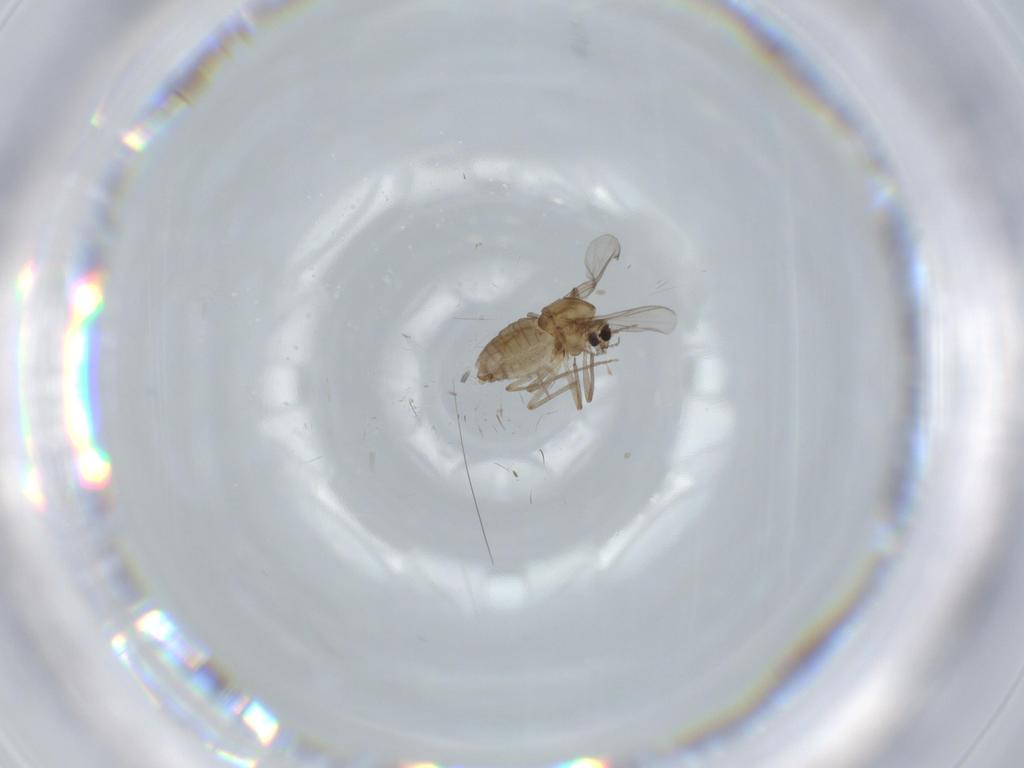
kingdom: Animalia
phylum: Arthropoda
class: Insecta
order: Diptera
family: Chironomidae
